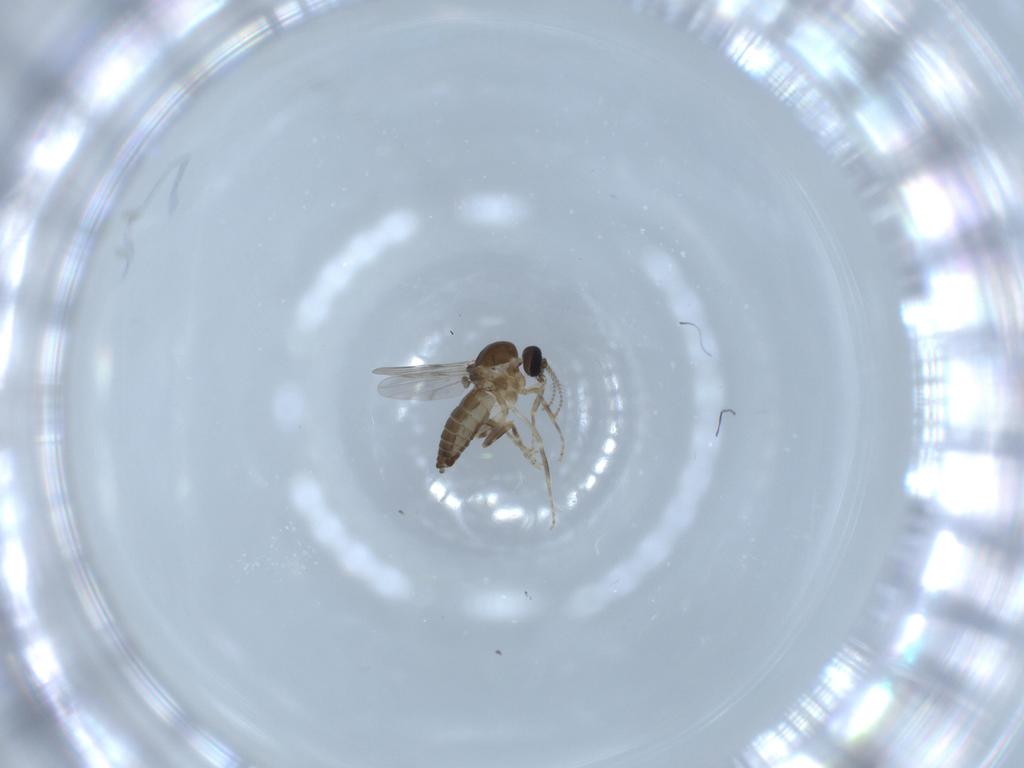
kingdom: Animalia
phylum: Arthropoda
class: Insecta
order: Diptera
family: Ceratopogonidae
